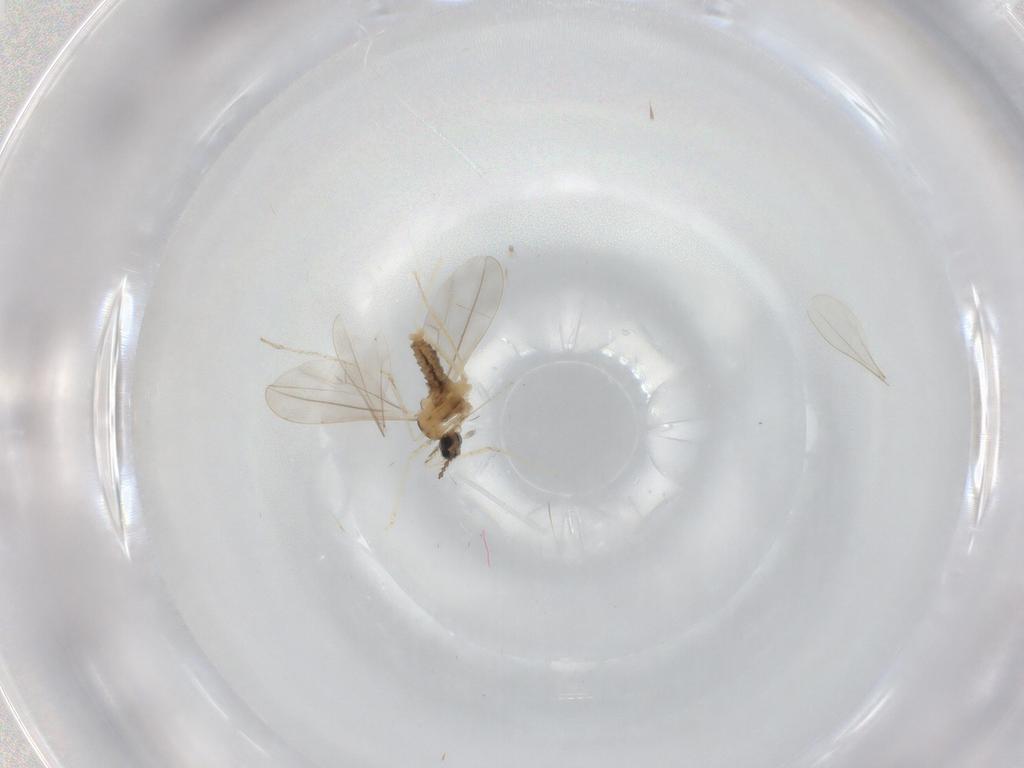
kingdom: Animalia
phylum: Arthropoda
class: Insecta
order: Diptera
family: Cecidomyiidae
